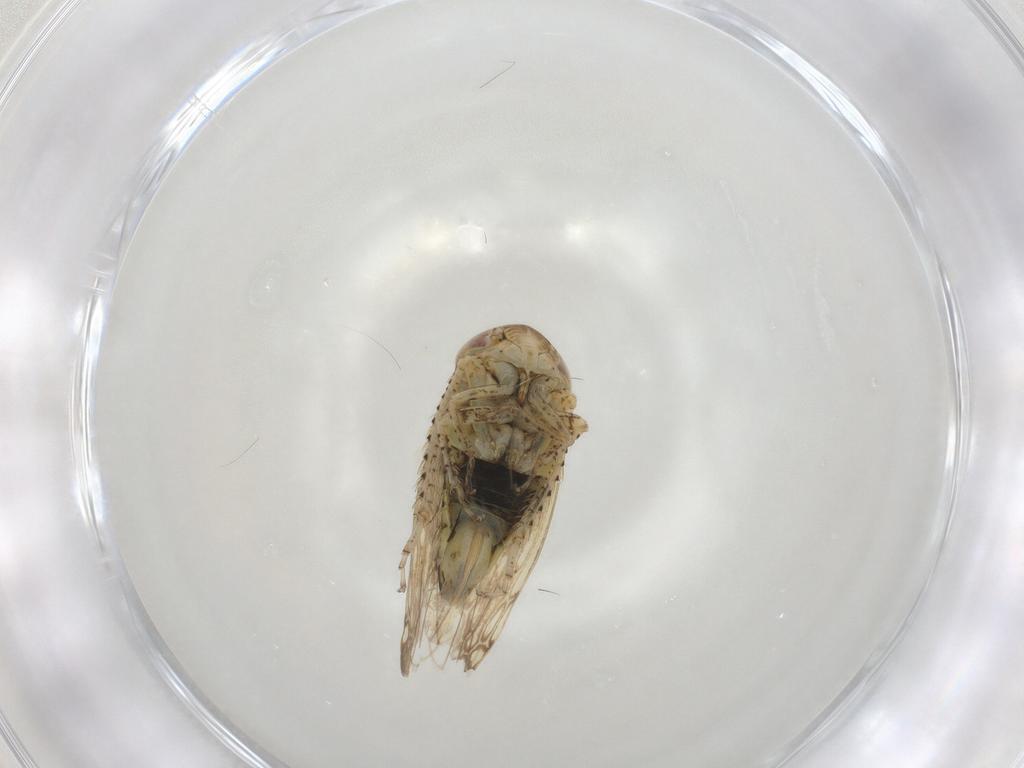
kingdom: Animalia
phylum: Arthropoda
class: Insecta
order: Hemiptera
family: Cicadellidae
